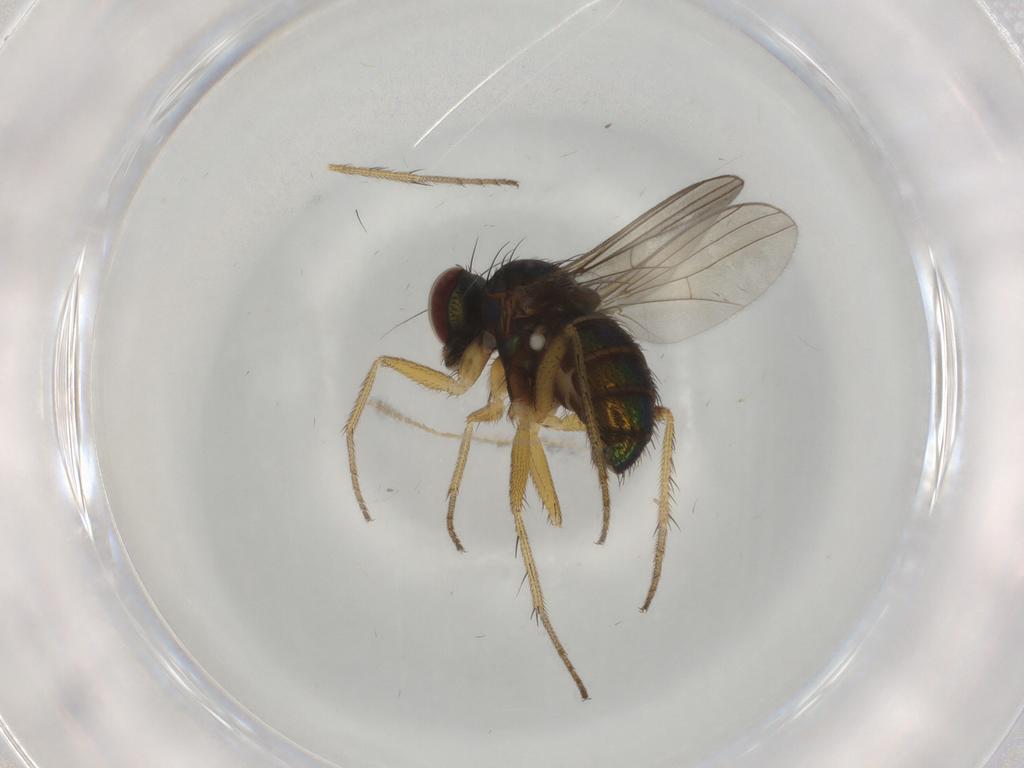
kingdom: Animalia
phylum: Arthropoda
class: Insecta
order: Diptera
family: Dolichopodidae
